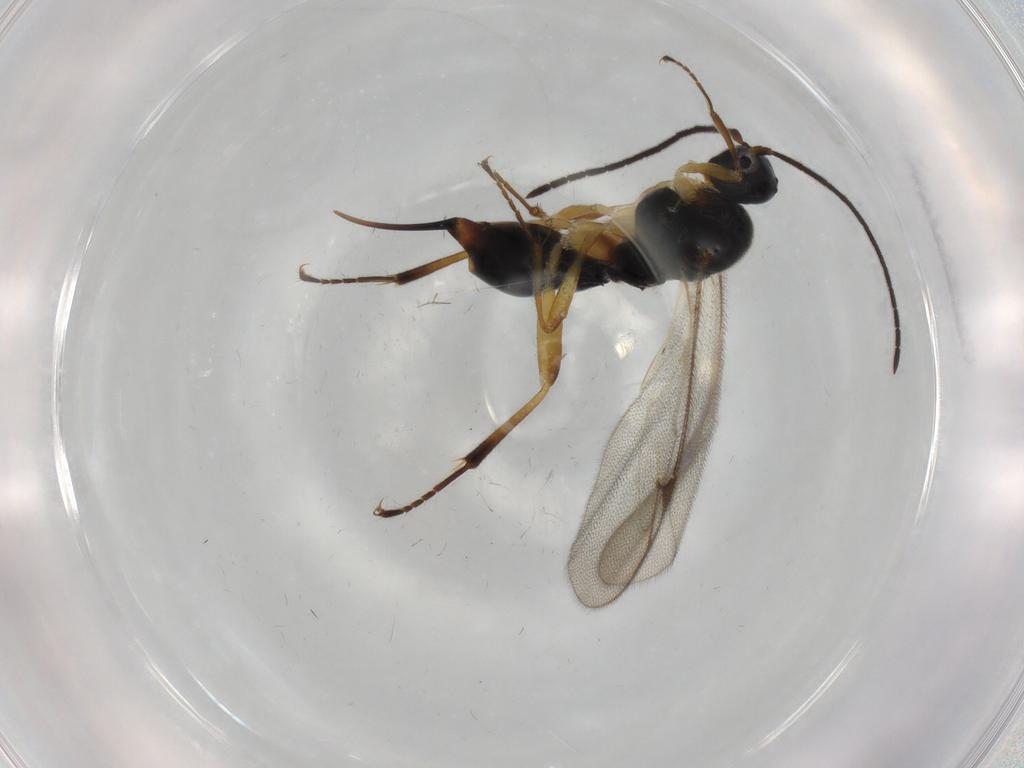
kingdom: Animalia
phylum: Arthropoda
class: Insecta
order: Hymenoptera
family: Proctotrupidae
